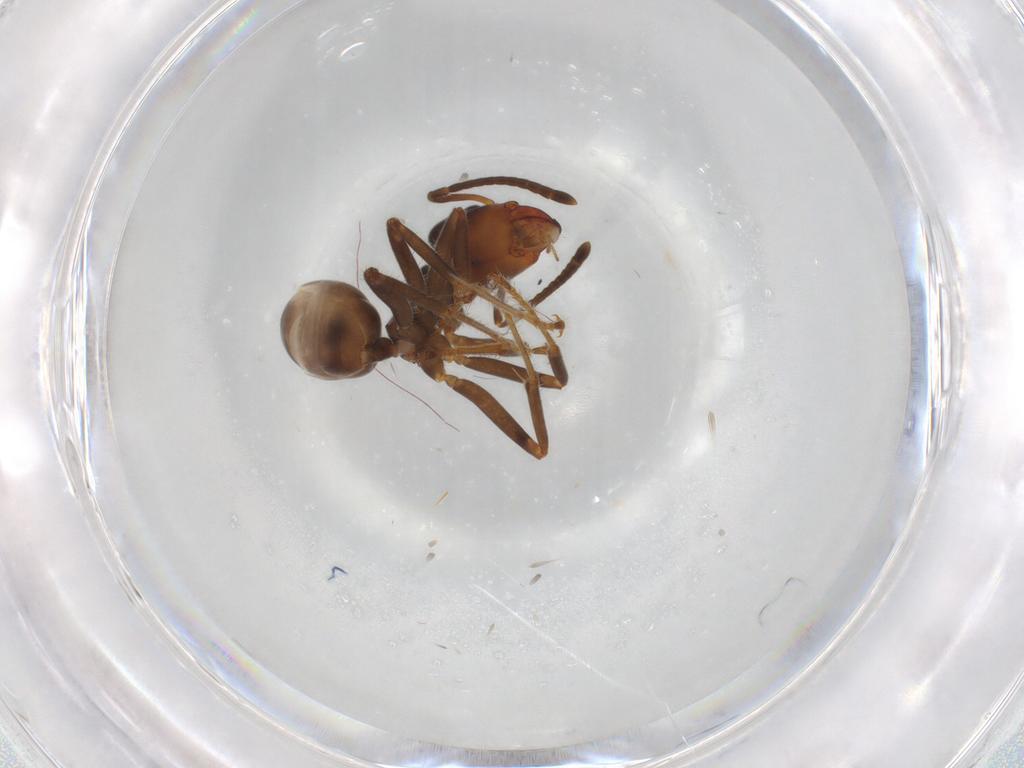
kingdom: Animalia
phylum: Arthropoda
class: Insecta
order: Hymenoptera
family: Formicidae
